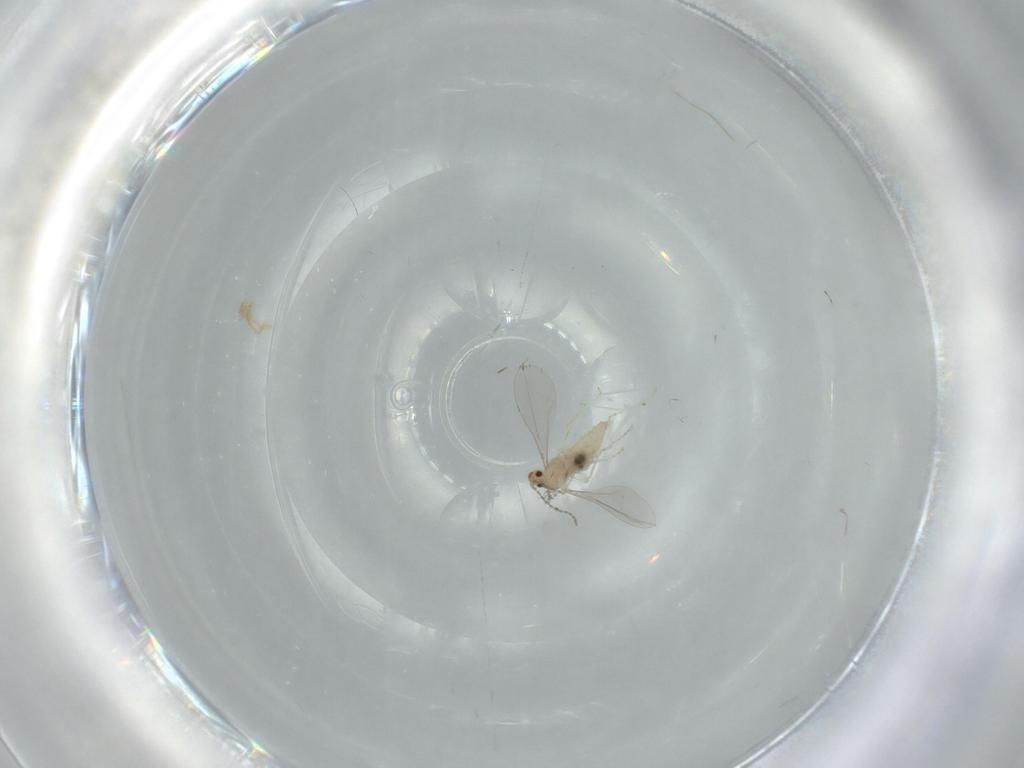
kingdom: Animalia
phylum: Arthropoda
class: Insecta
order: Diptera
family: Cecidomyiidae
